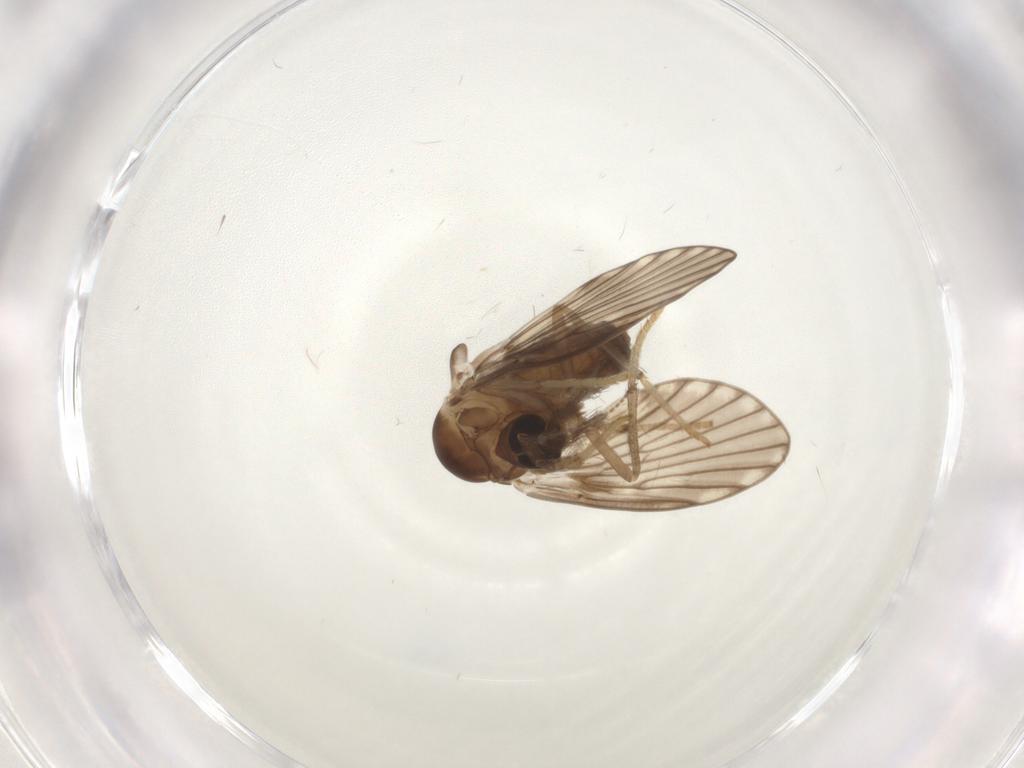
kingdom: Animalia
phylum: Arthropoda
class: Insecta
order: Diptera
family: Psychodidae
